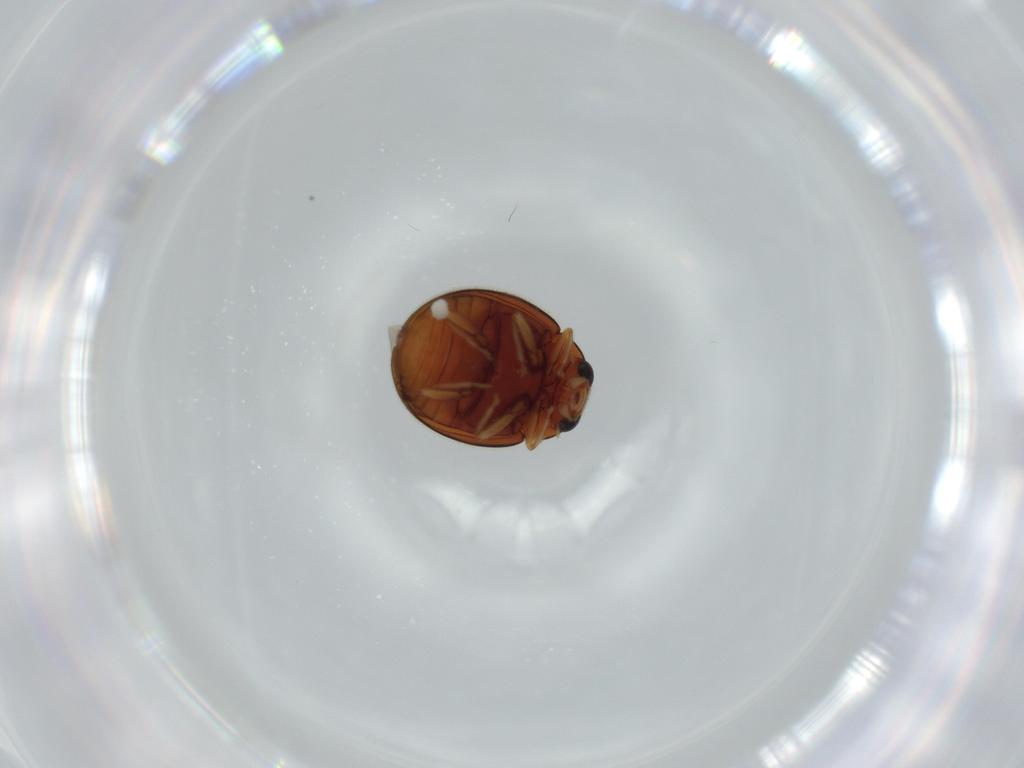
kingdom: Animalia
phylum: Arthropoda
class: Insecta
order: Coleoptera
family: Coccinellidae
